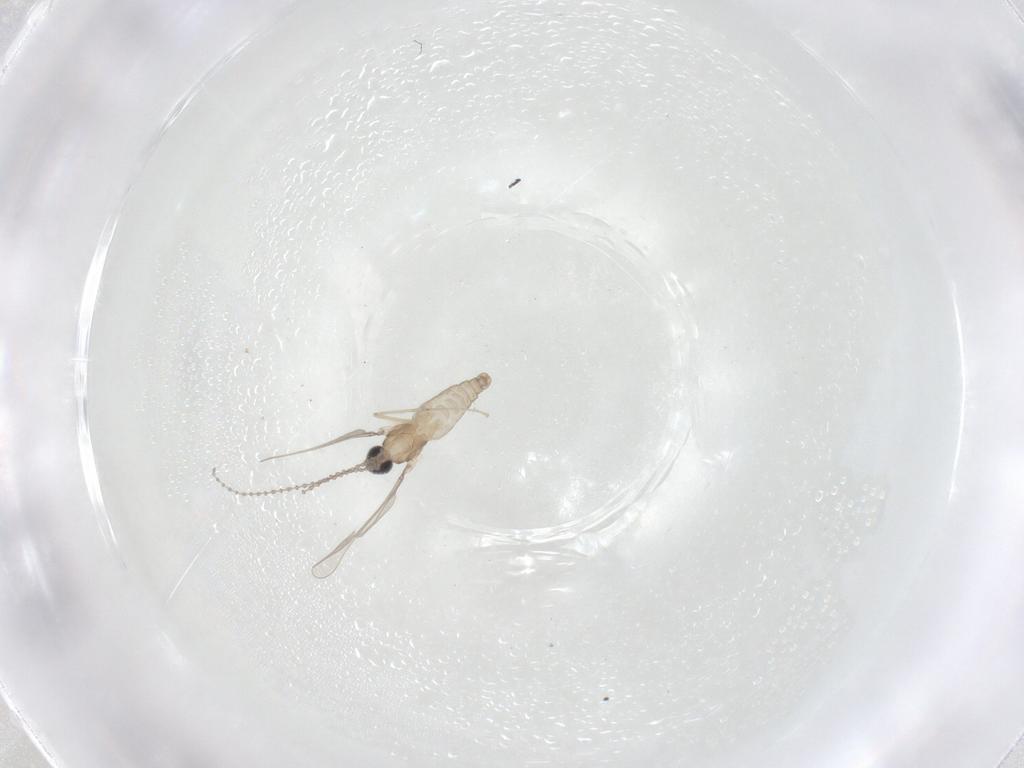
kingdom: Animalia
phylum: Arthropoda
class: Insecta
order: Diptera
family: Cecidomyiidae
